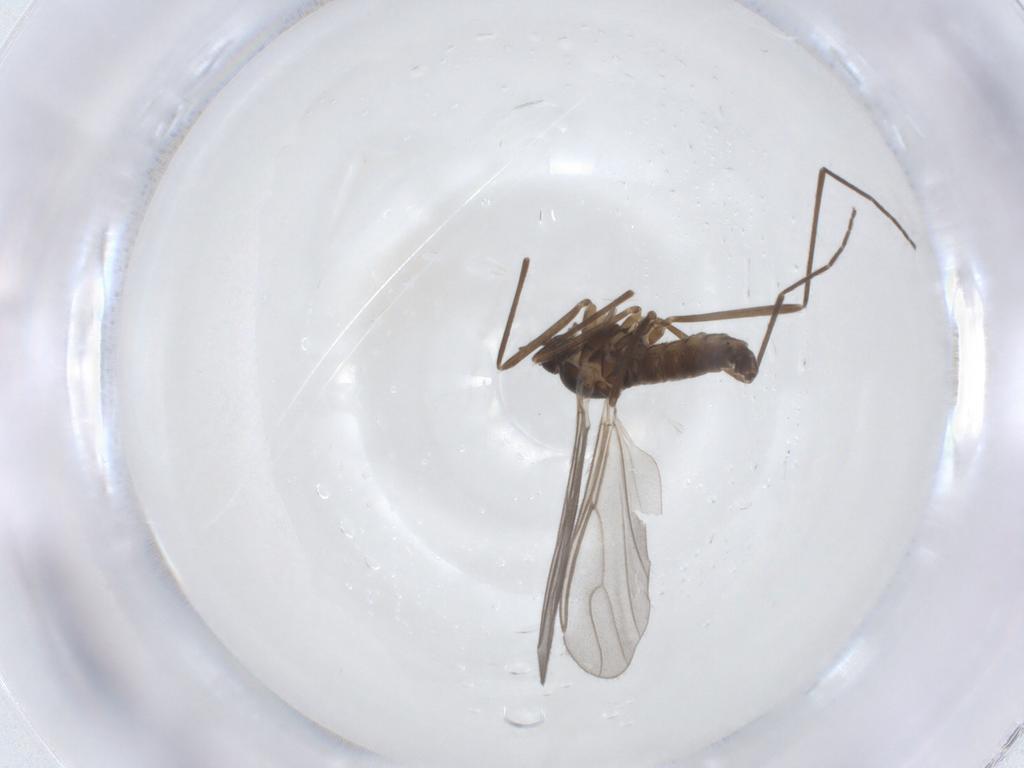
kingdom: Animalia
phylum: Arthropoda
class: Insecta
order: Diptera
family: Cecidomyiidae
